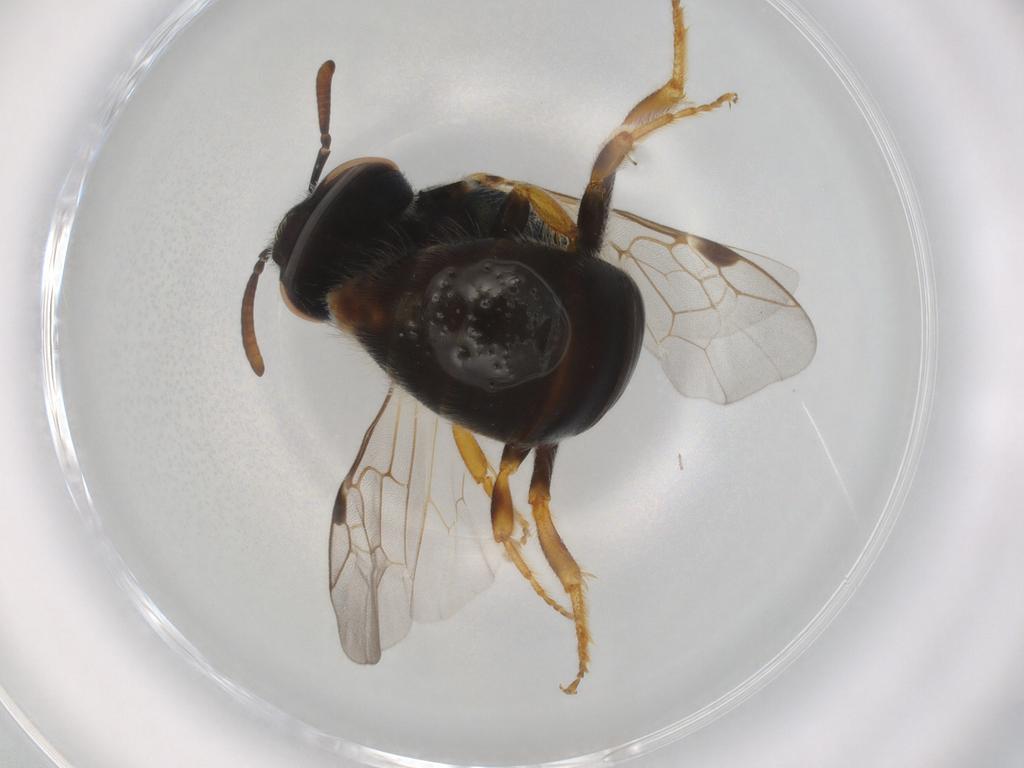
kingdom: Animalia
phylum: Arthropoda
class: Insecta
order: Hymenoptera
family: Halictidae
